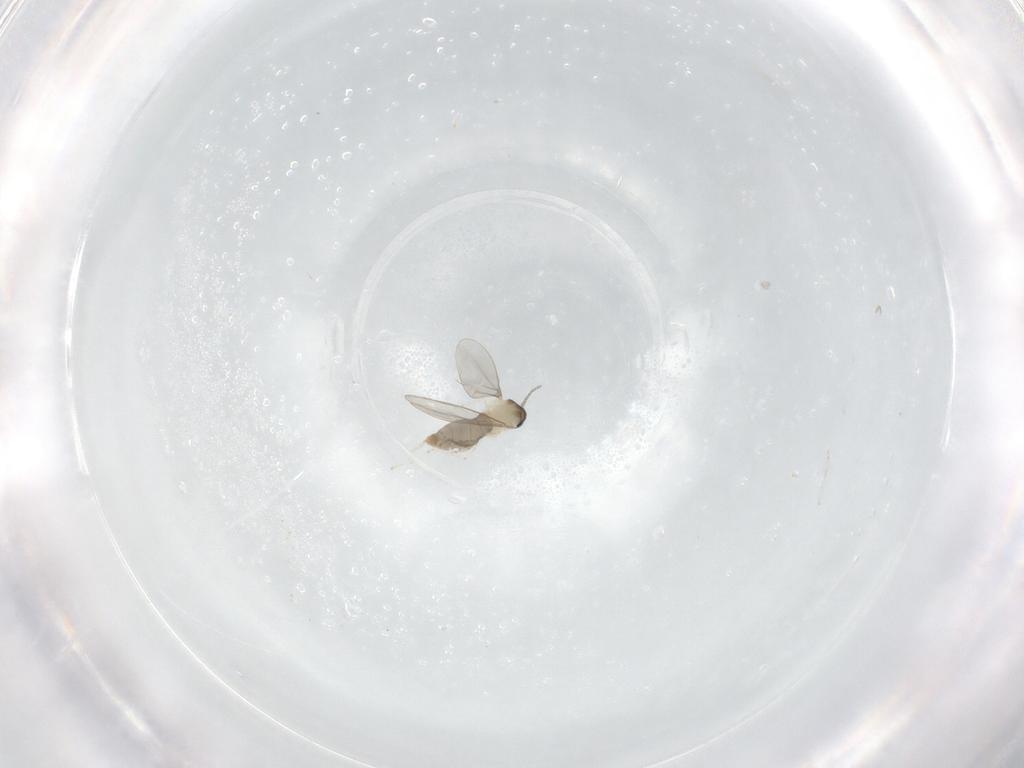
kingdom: Animalia
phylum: Arthropoda
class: Insecta
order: Diptera
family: Cecidomyiidae
